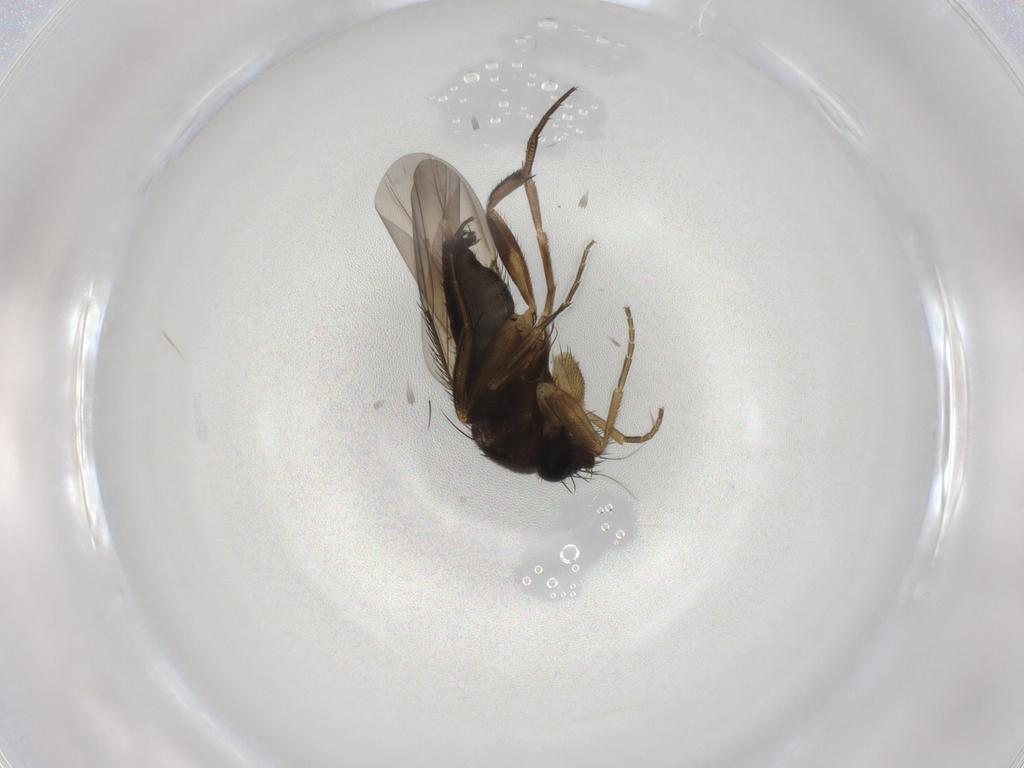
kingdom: Animalia
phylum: Arthropoda
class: Insecta
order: Diptera
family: Phoridae
